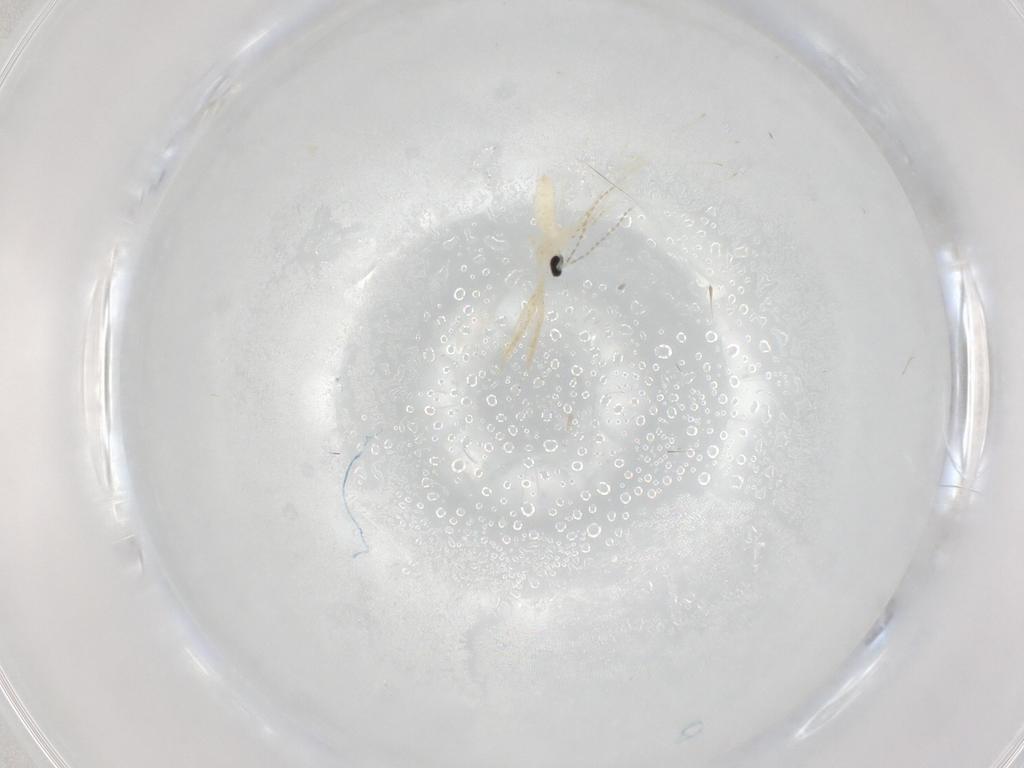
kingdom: Animalia
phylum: Arthropoda
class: Insecta
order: Diptera
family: Cecidomyiidae
